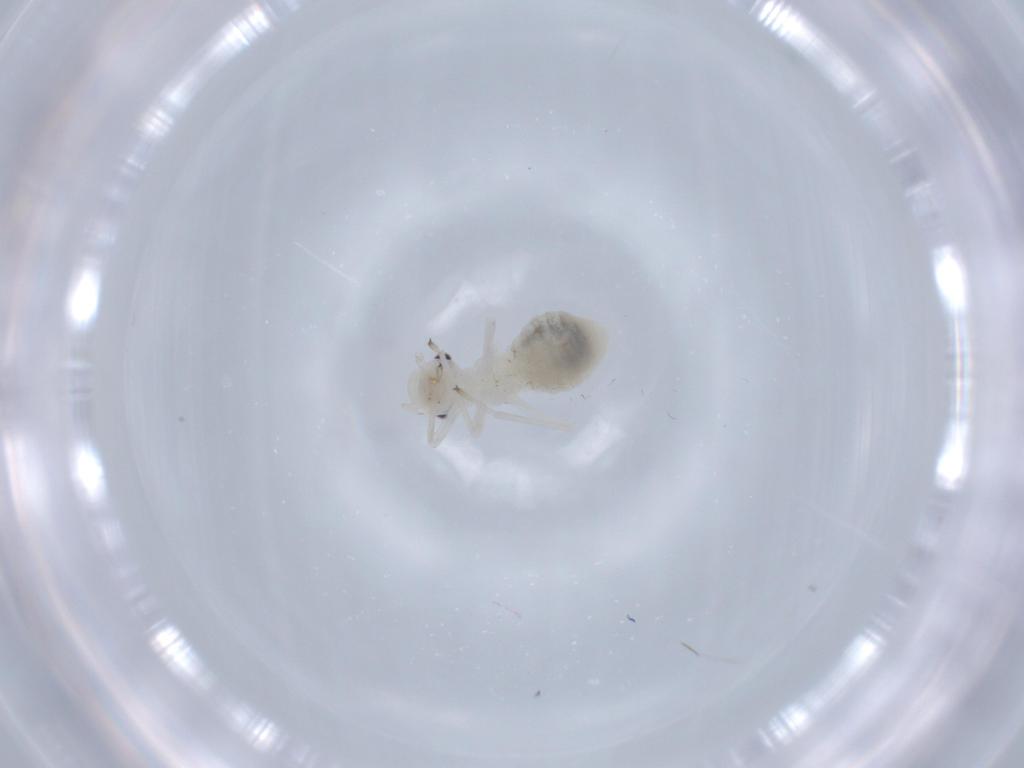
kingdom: Animalia
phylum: Arthropoda
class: Insecta
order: Psocodea
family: Stenopsocidae
